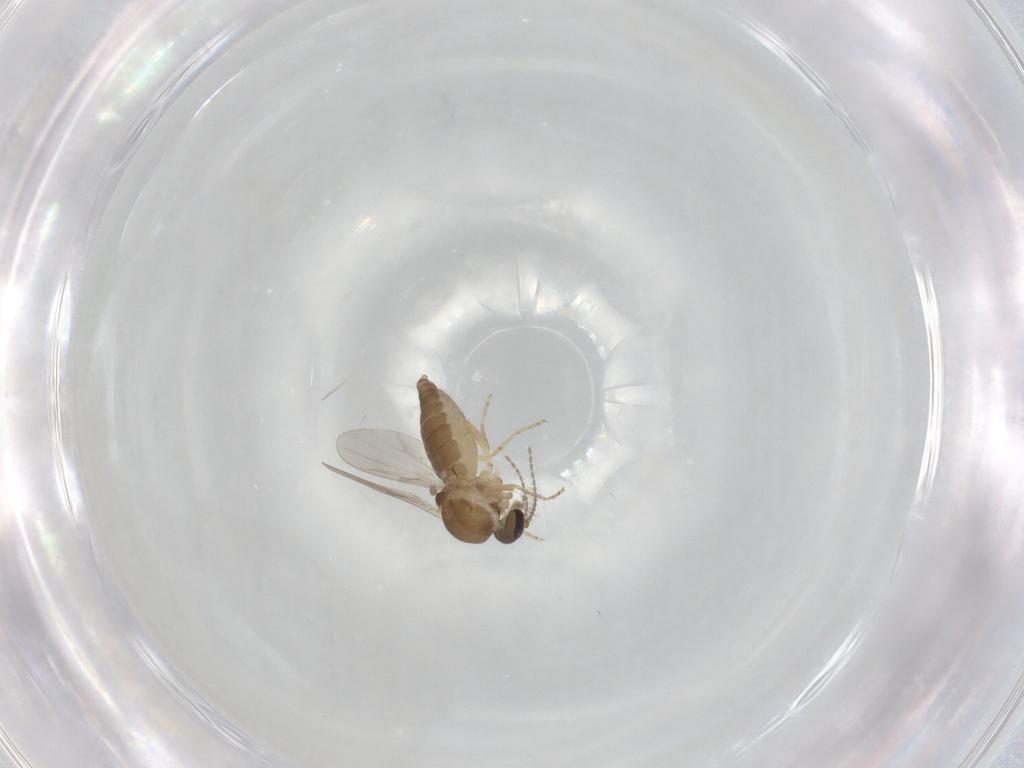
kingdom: Animalia
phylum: Arthropoda
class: Insecta
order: Diptera
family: Ceratopogonidae
